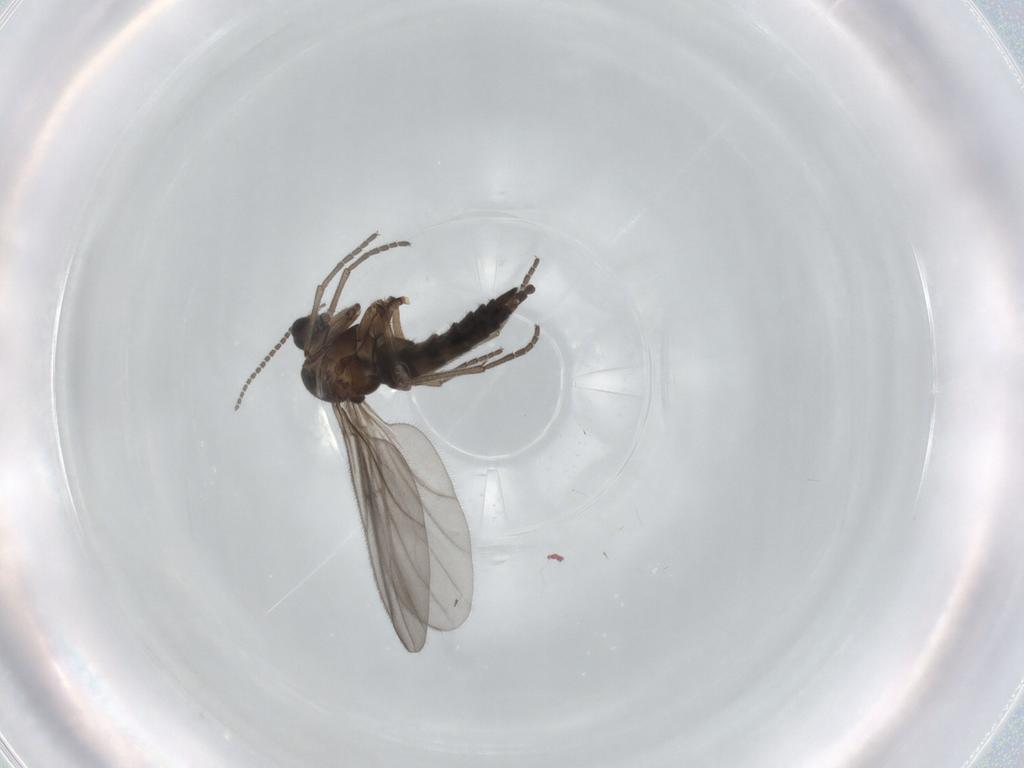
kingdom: Animalia
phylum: Arthropoda
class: Insecta
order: Diptera
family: Sciaridae
